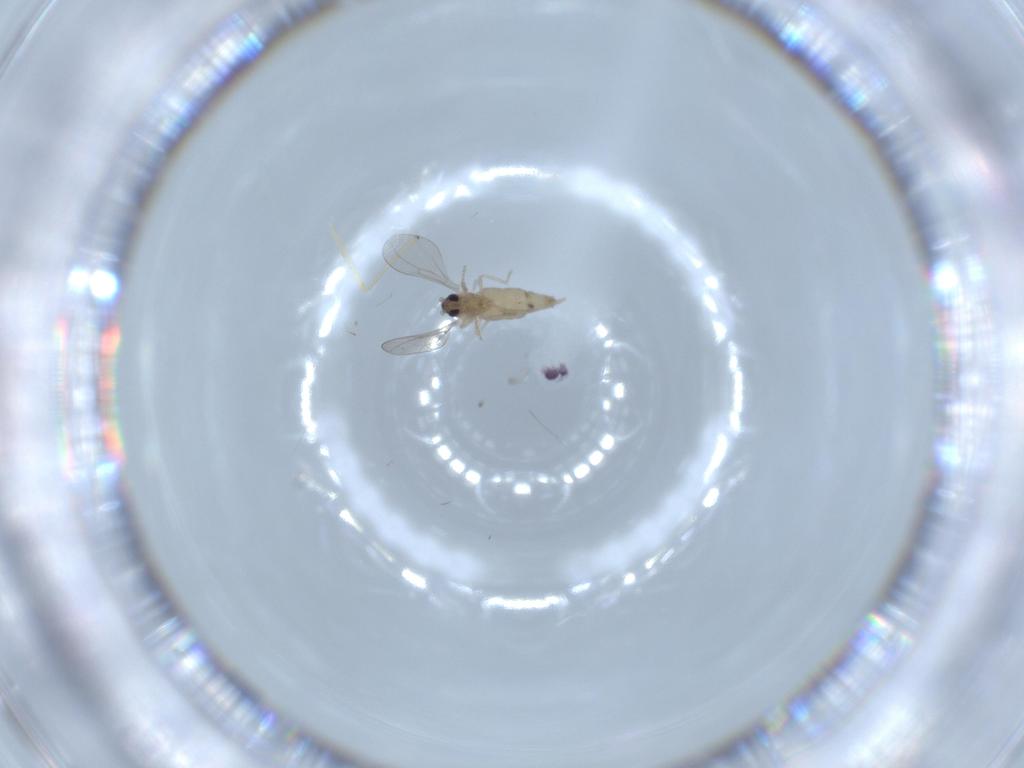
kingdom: Animalia
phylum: Arthropoda
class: Insecta
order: Diptera
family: Cecidomyiidae
